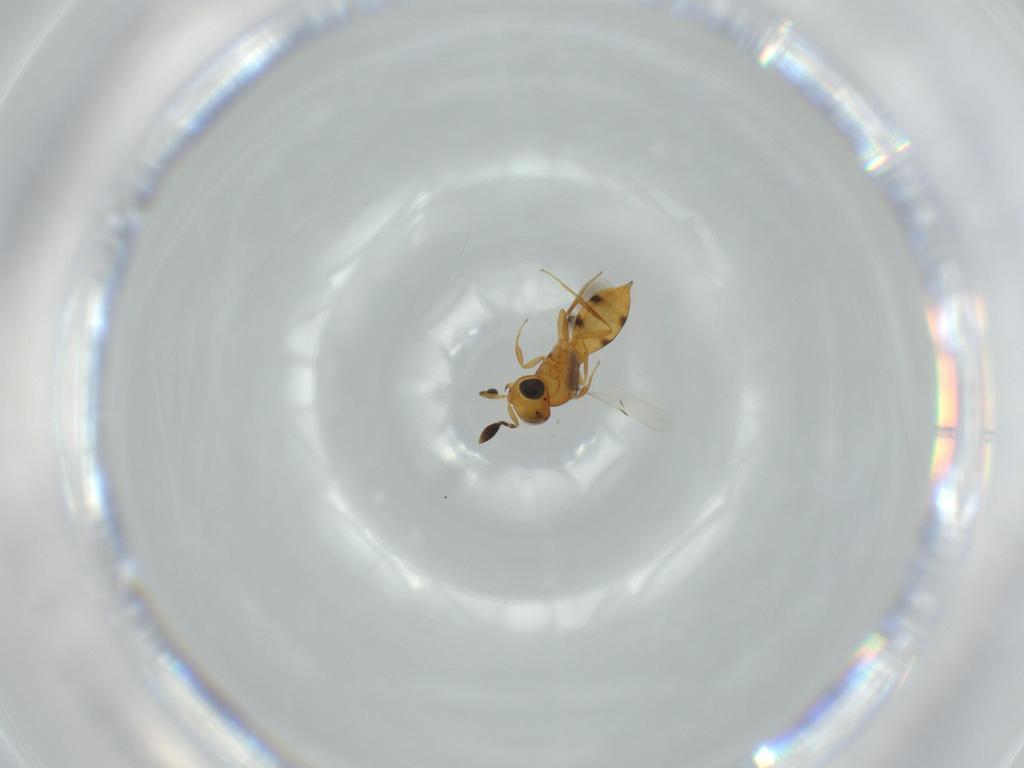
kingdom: Animalia
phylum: Arthropoda
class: Insecta
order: Hymenoptera
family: Scelionidae
